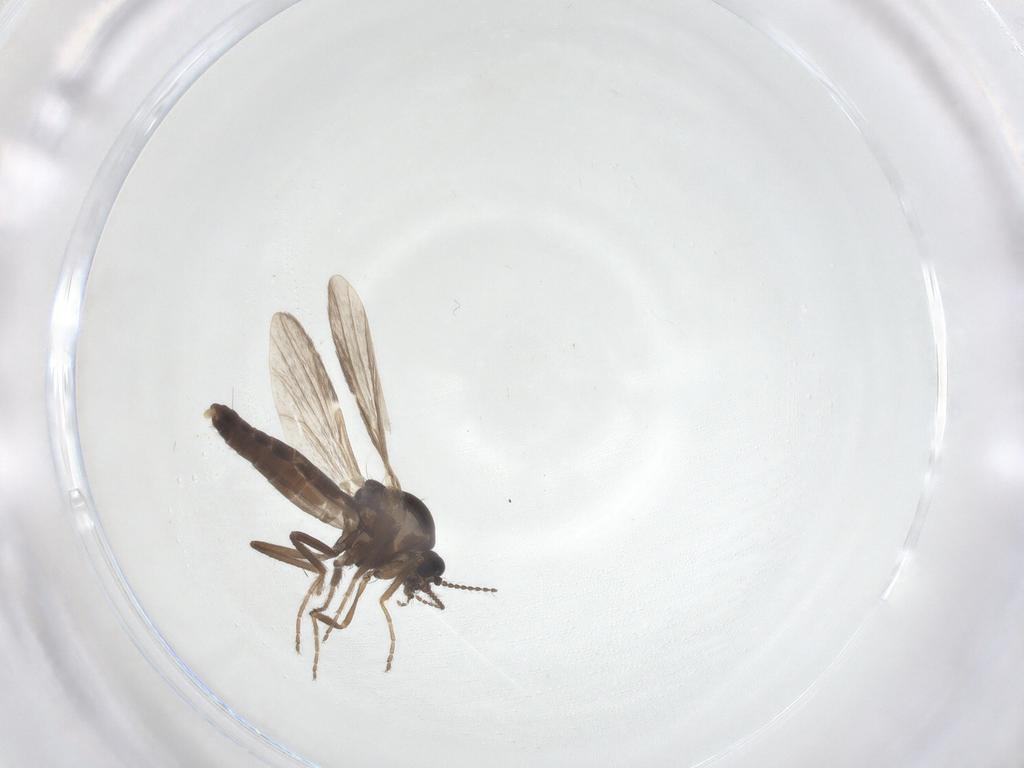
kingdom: Animalia
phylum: Arthropoda
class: Insecta
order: Diptera
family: Ceratopogonidae
